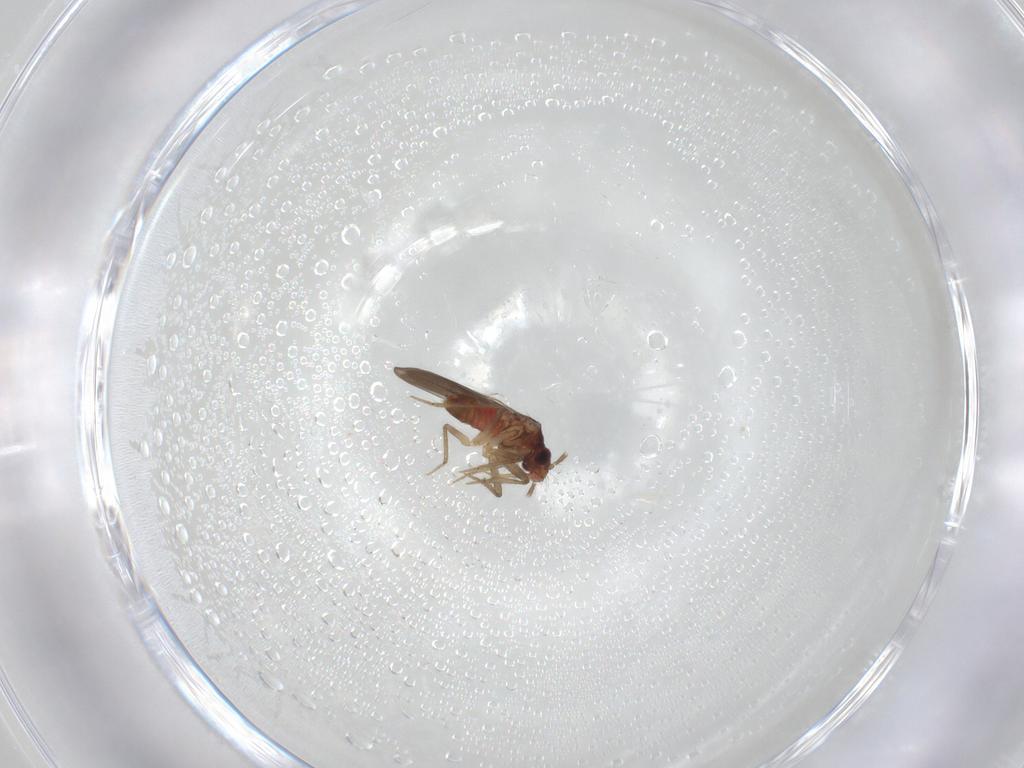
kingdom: Animalia
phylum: Arthropoda
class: Insecta
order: Hemiptera
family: Ceratocombidae
